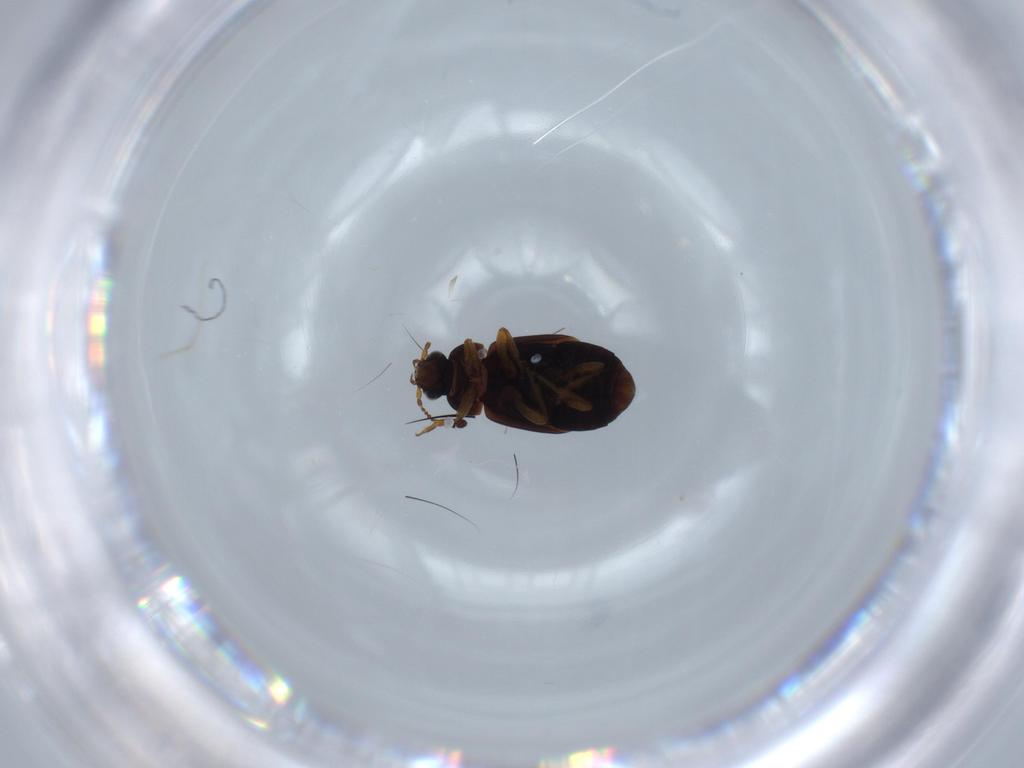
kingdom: Animalia
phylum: Arthropoda
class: Insecta
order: Coleoptera
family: Staphylinidae
